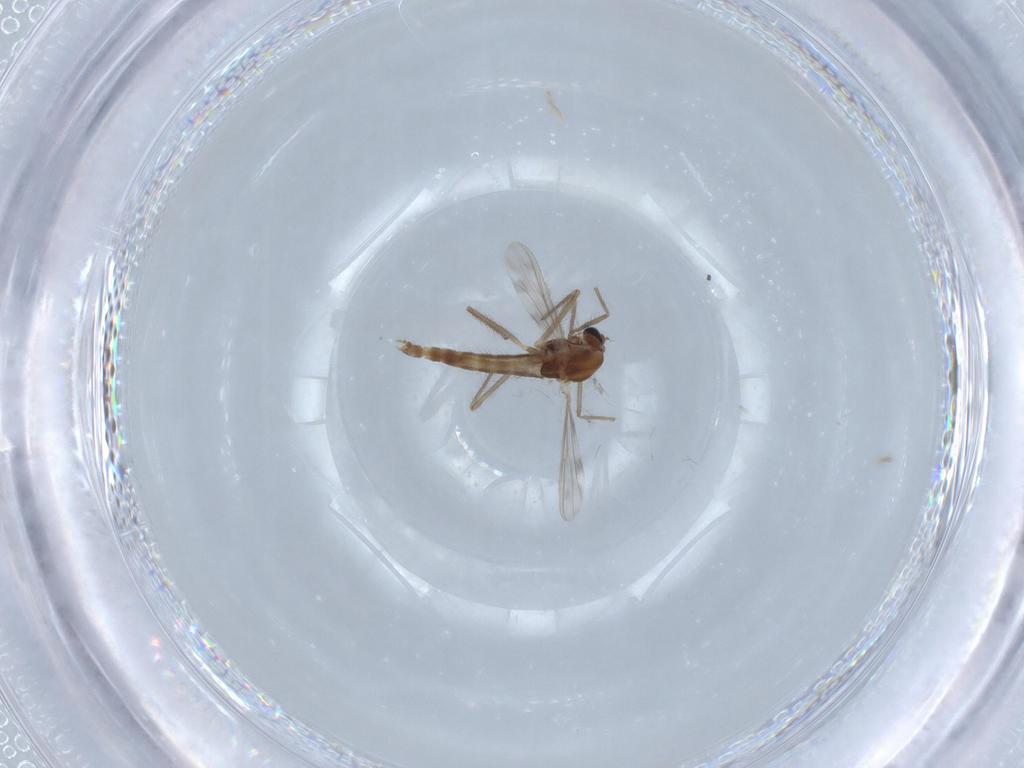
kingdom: Animalia
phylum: Arthropoda
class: Insecta
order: Diptera
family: Chironomidae
